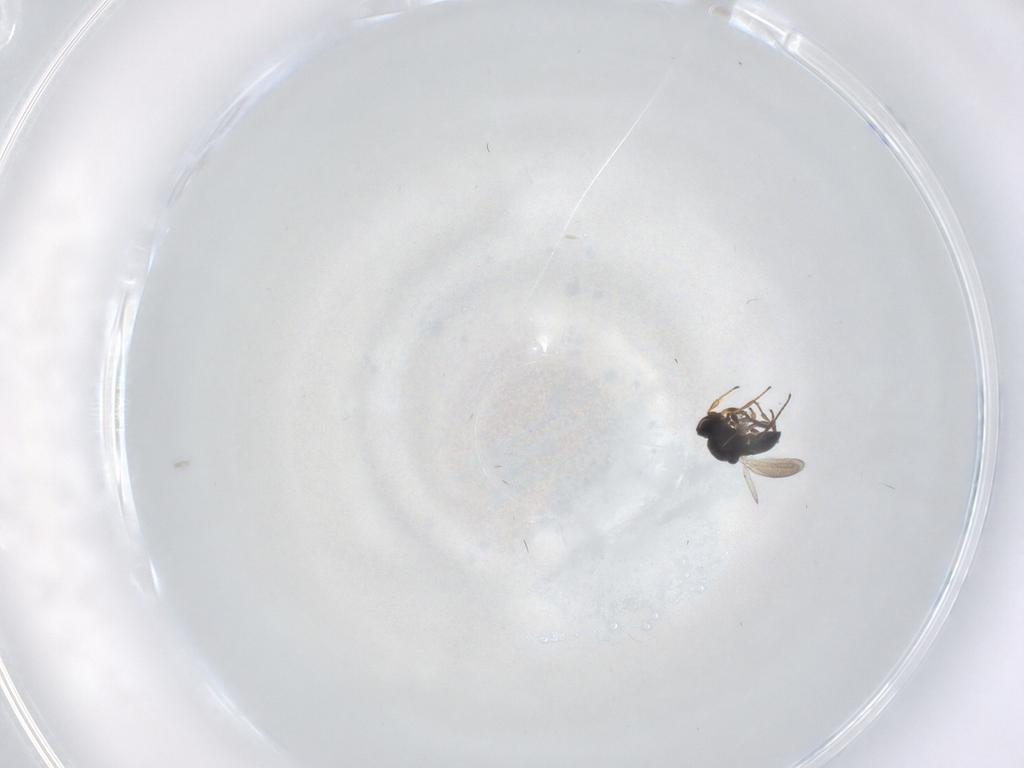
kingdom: Animalia
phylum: Arthropoda
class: Insecta
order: Hymenoptera
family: Platygastridae
